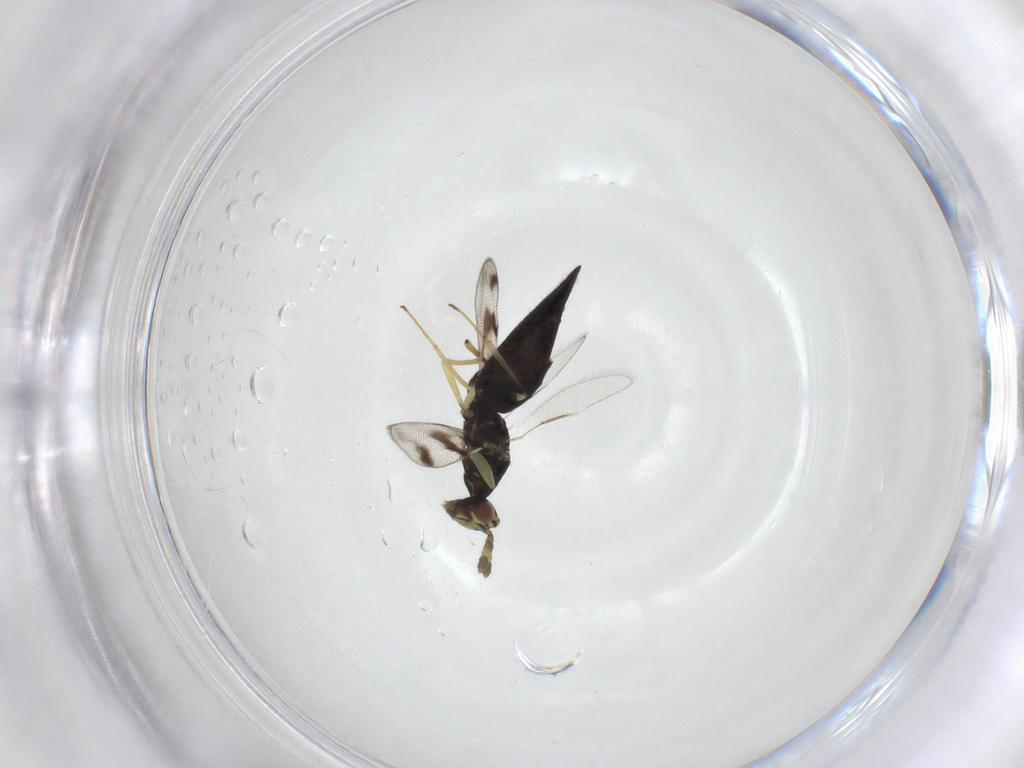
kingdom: Animalia
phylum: Arthropoda
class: Insecta
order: Hymenoptera
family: Eulophidae
